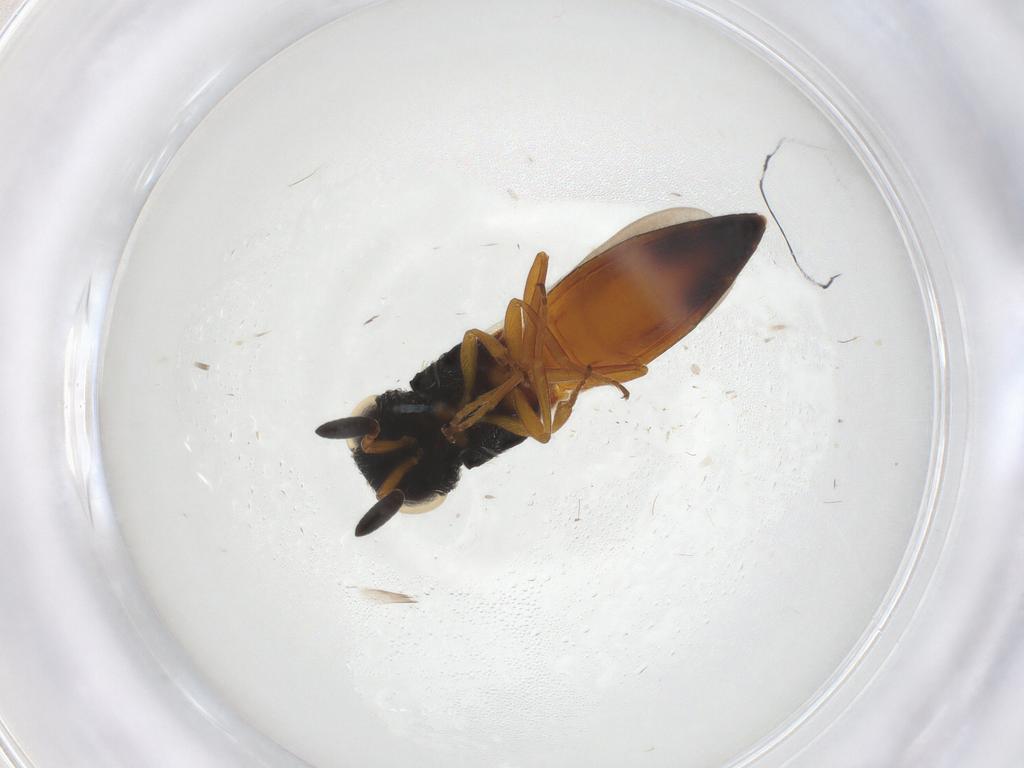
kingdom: Animalia
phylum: Arthropoda
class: Insecta
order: Hymenoptera
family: Scelionidae
